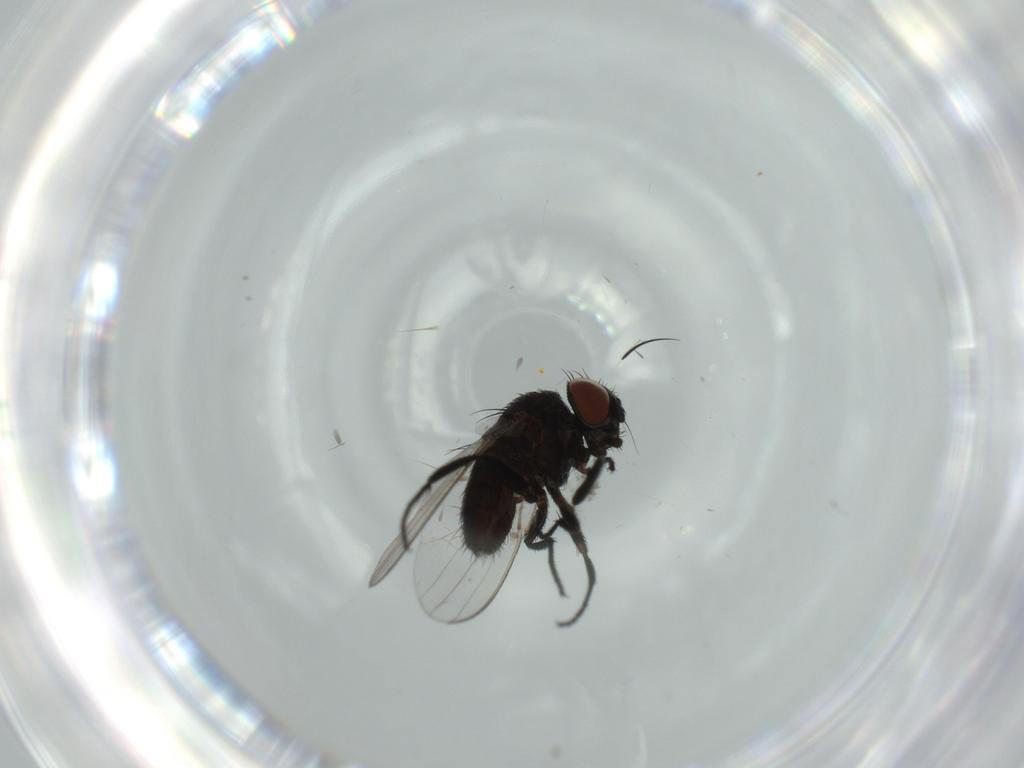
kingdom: Animalia
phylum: Arthropoda
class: Insecta
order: Diptera
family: Milichiidae
